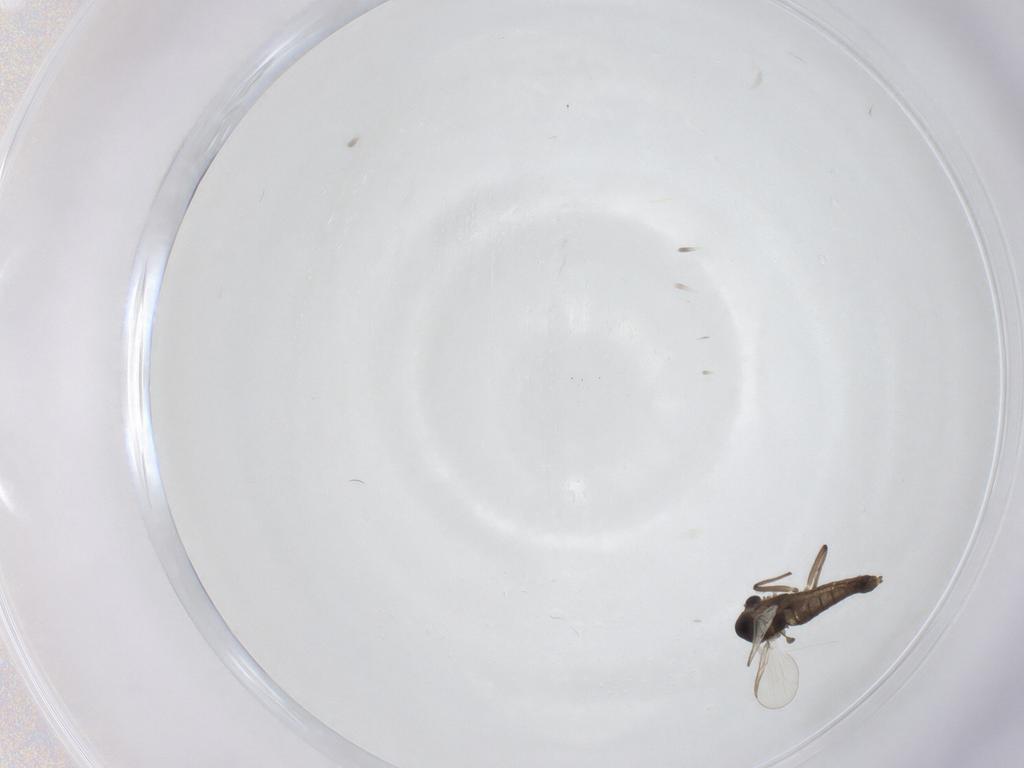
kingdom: Animalia
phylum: Arthropoda
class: Insecta
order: Diptera
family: Chironomidae
